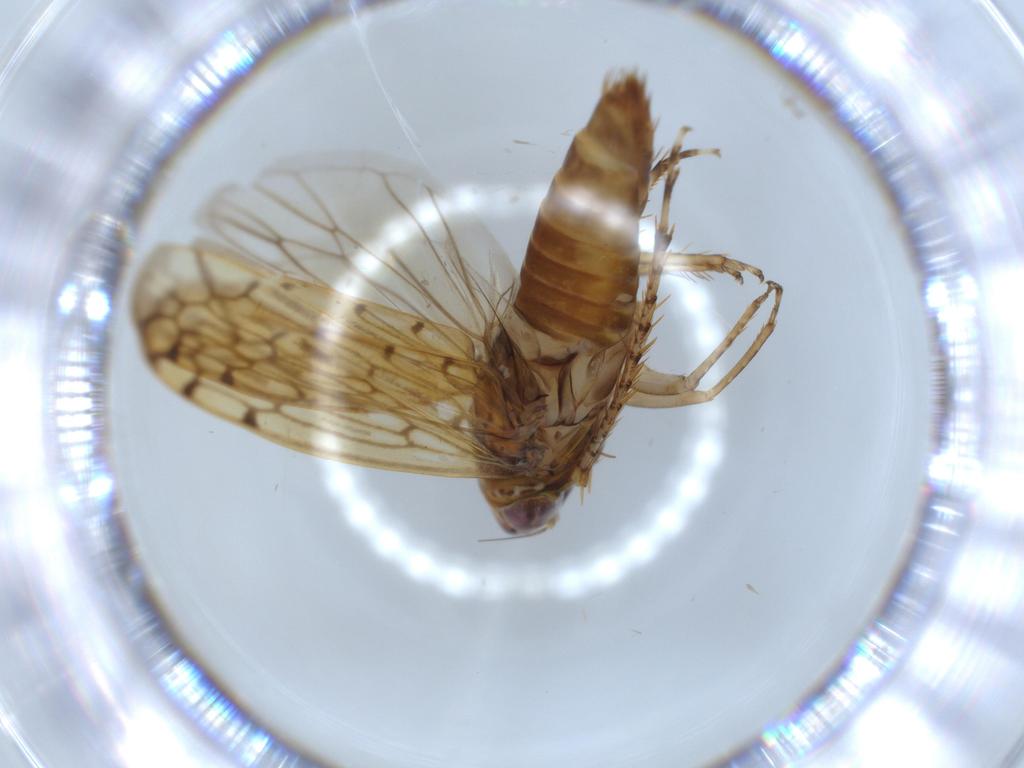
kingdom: Animalia
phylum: Arthropoda
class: Insecta
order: Hemiptera
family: Cicadellidae
